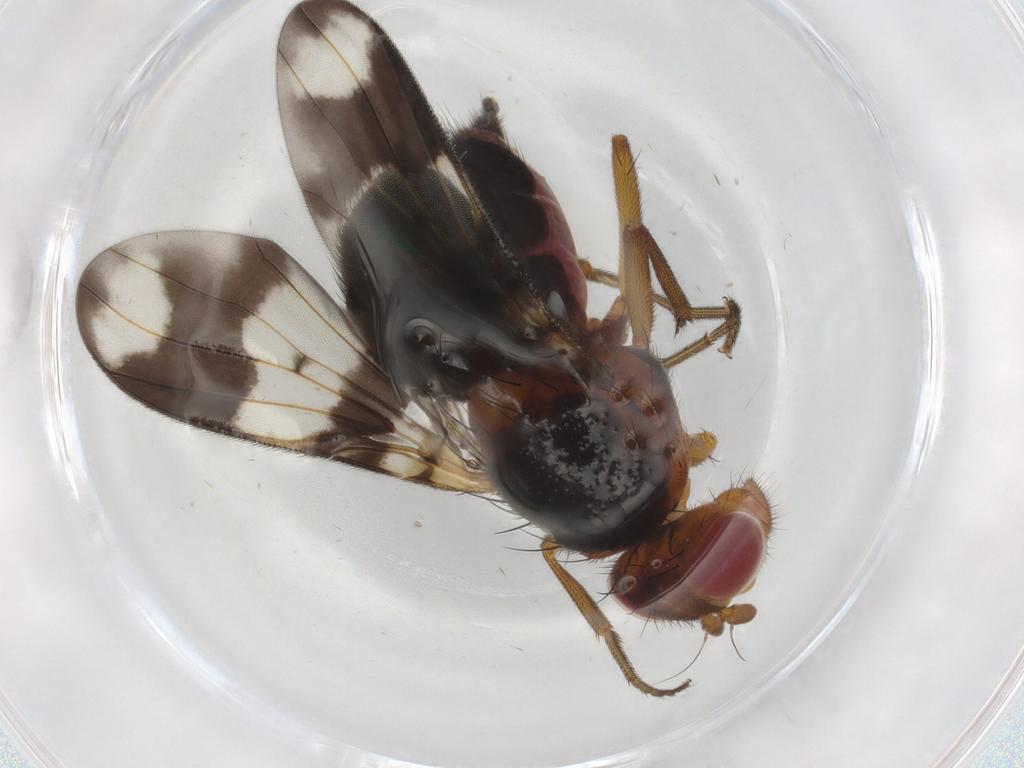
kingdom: Animalia
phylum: Arthropoda
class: Insecta
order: Diptera
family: Richardiidae
